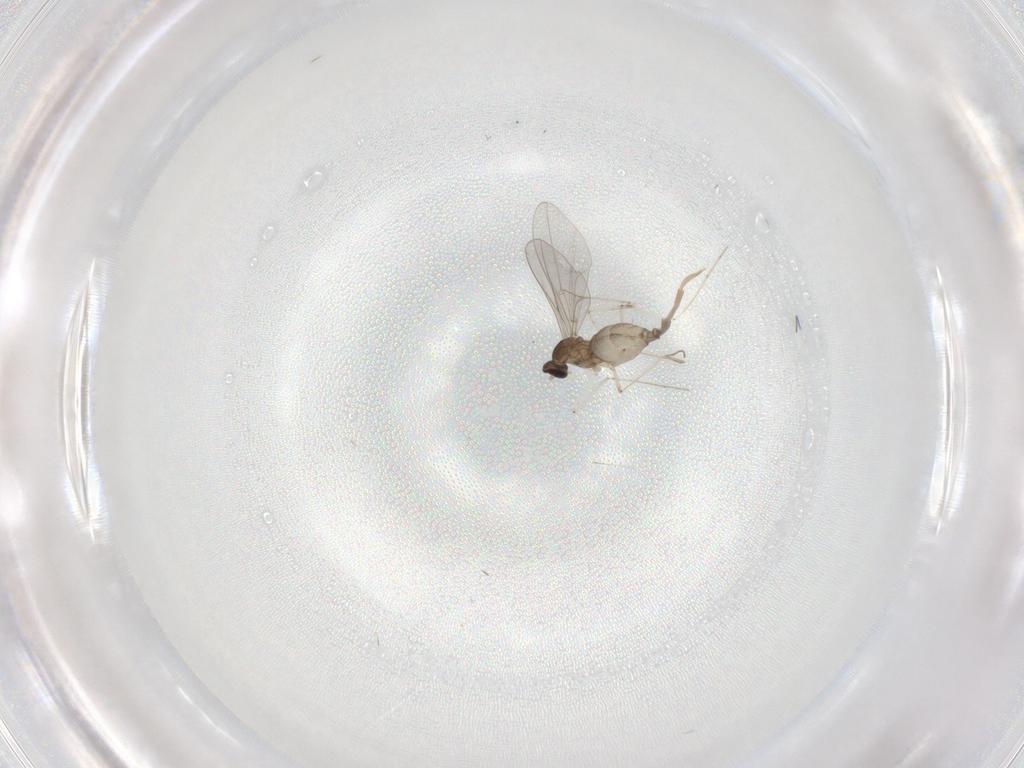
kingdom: Animalia
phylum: Arthropoda
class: Insecta
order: Diptera
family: Cecidomyiidae
